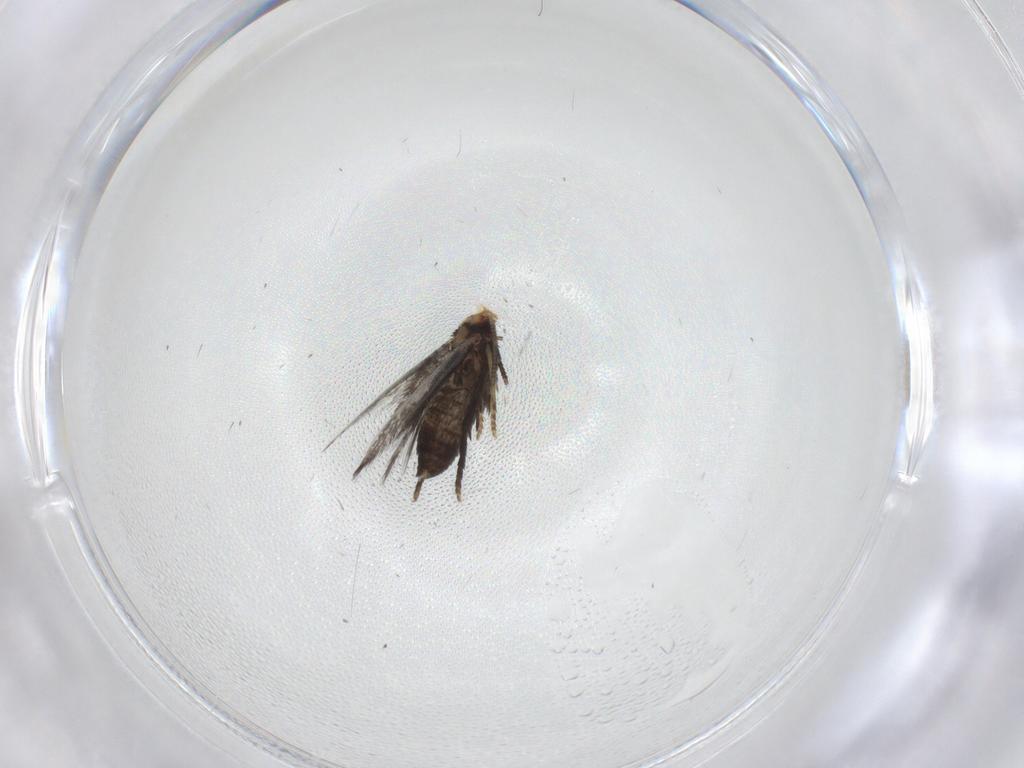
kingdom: Animalia
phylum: Arthropoda
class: Insecta
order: Lepidoptera
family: Nepticulidae
